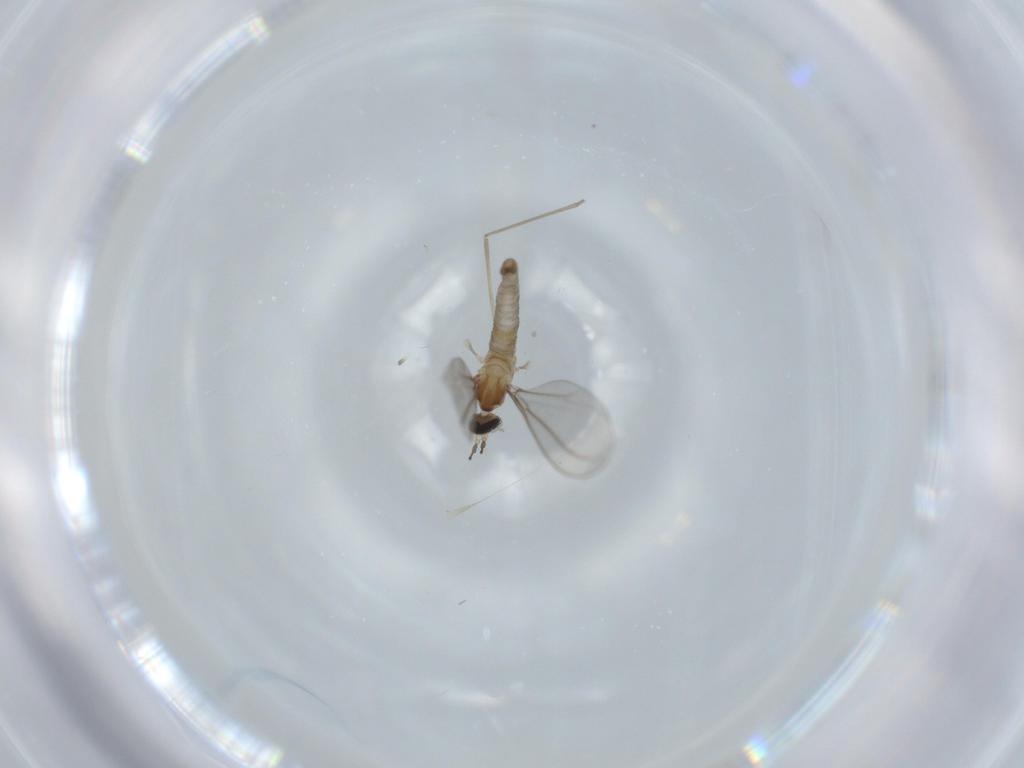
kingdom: Animalia
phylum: Arthropoda
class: Insecta
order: Diptera
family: Cecidomyiidae
